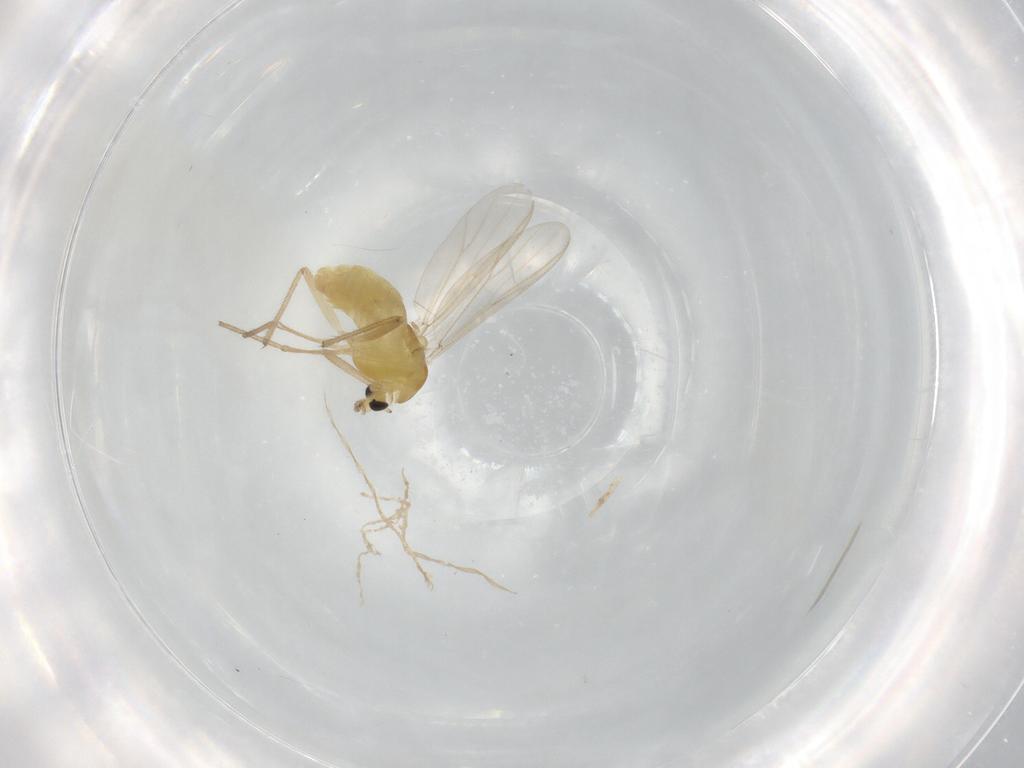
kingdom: Animalia
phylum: Arthropoda
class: Insecta
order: Diptera
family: Chironomidae
